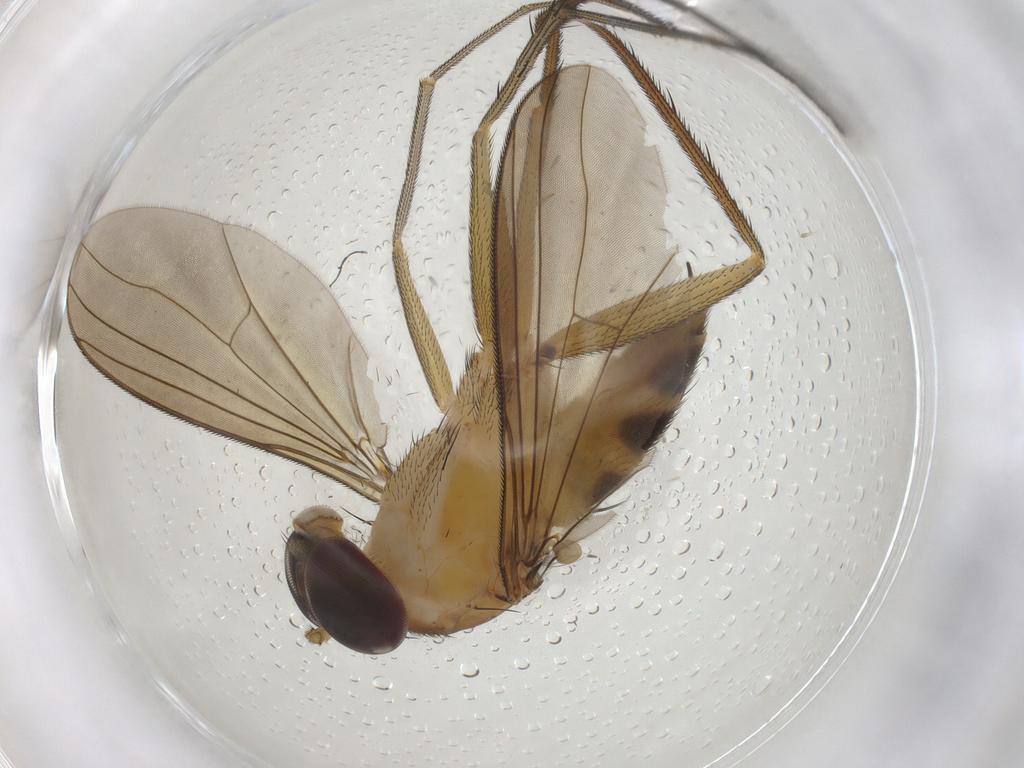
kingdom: Animalia
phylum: Arthropoda
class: Insecta
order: Diptera
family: Dolichopodidae
